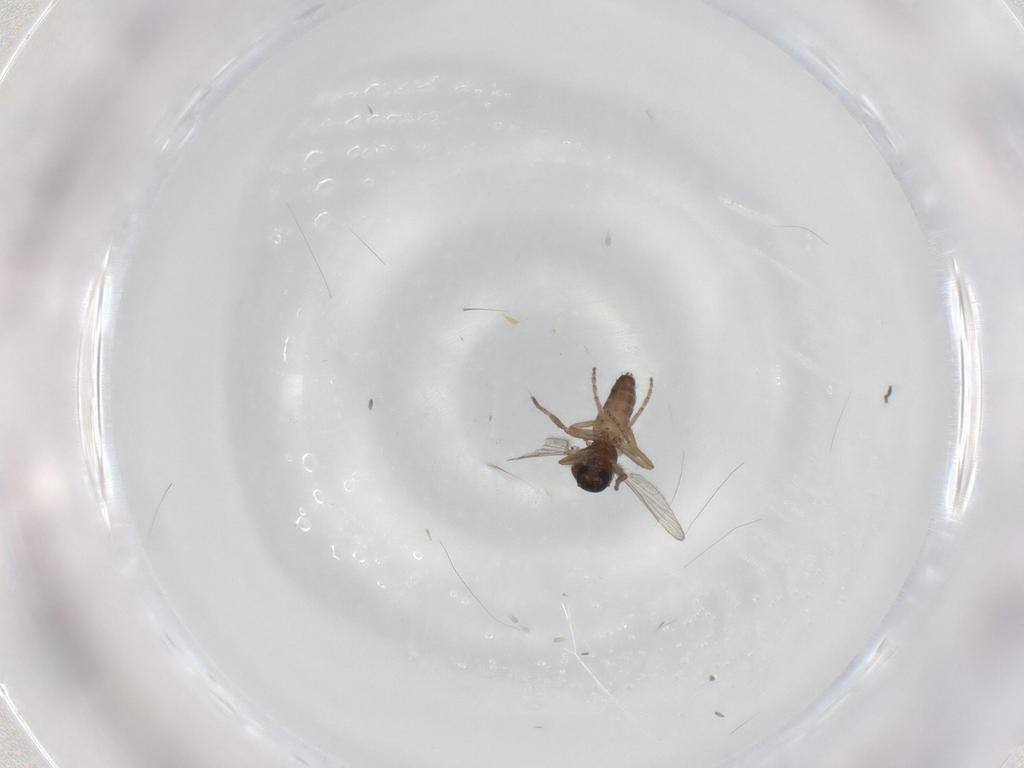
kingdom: Animalia
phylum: Arthropoda
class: Insecta
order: Diptera
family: Ceratopogonidae
